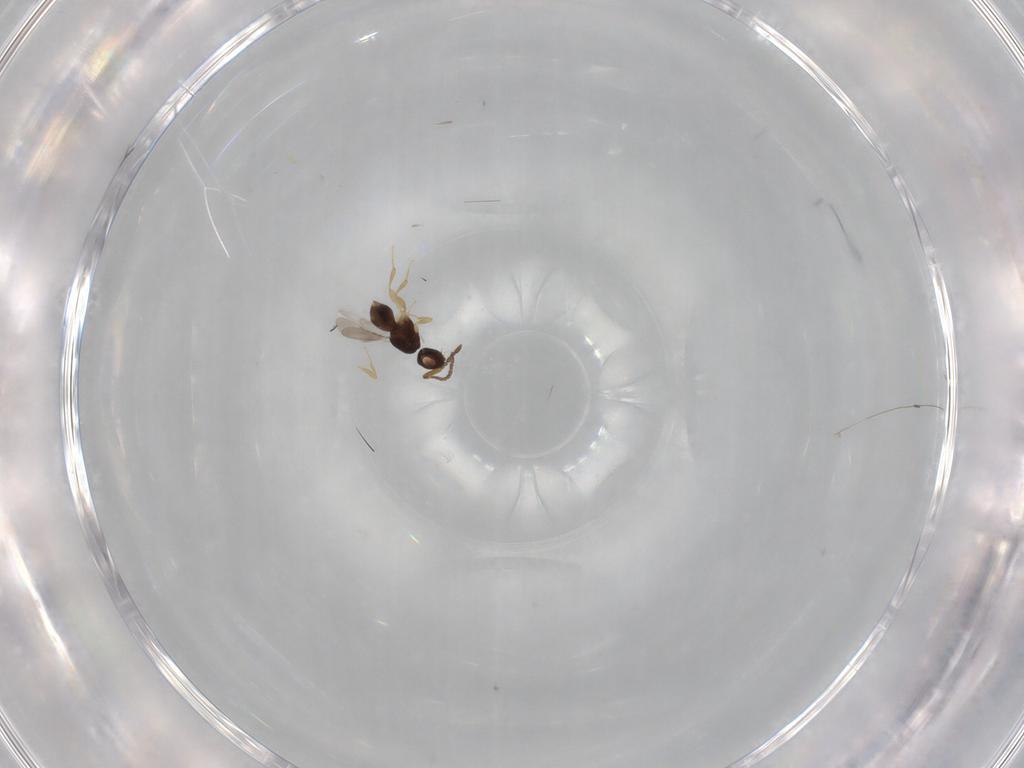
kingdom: Animalia
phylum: Arthropoda
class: Insecta
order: Hymenoptera
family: Ceraphronidae
